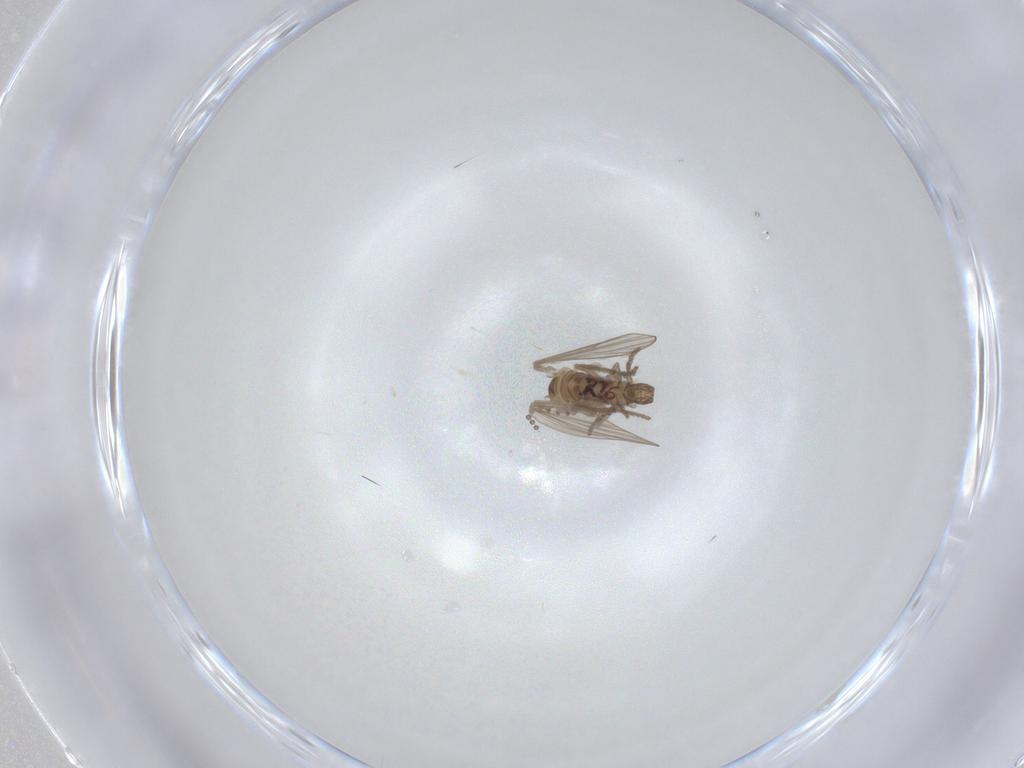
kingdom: Animalia
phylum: Arthropoda
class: Insecta
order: Diptera
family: Psychodidae
